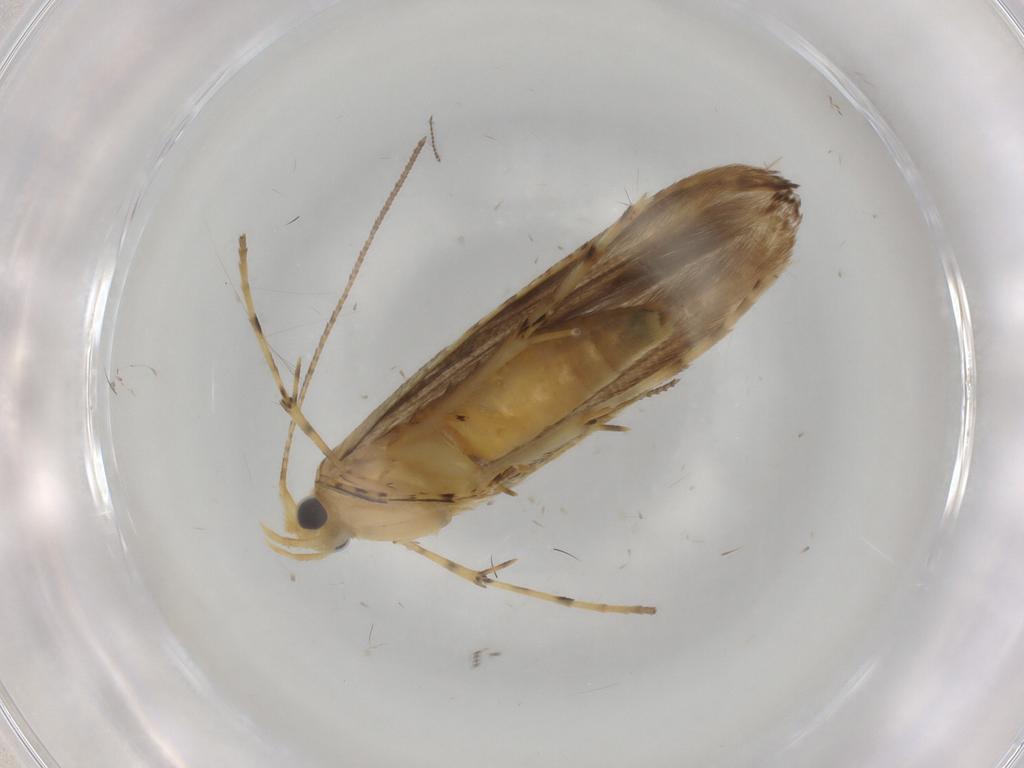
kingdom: Animalia
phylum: Arthropoda
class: Insecta
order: Lepidoptera
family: Argyresthiidae
